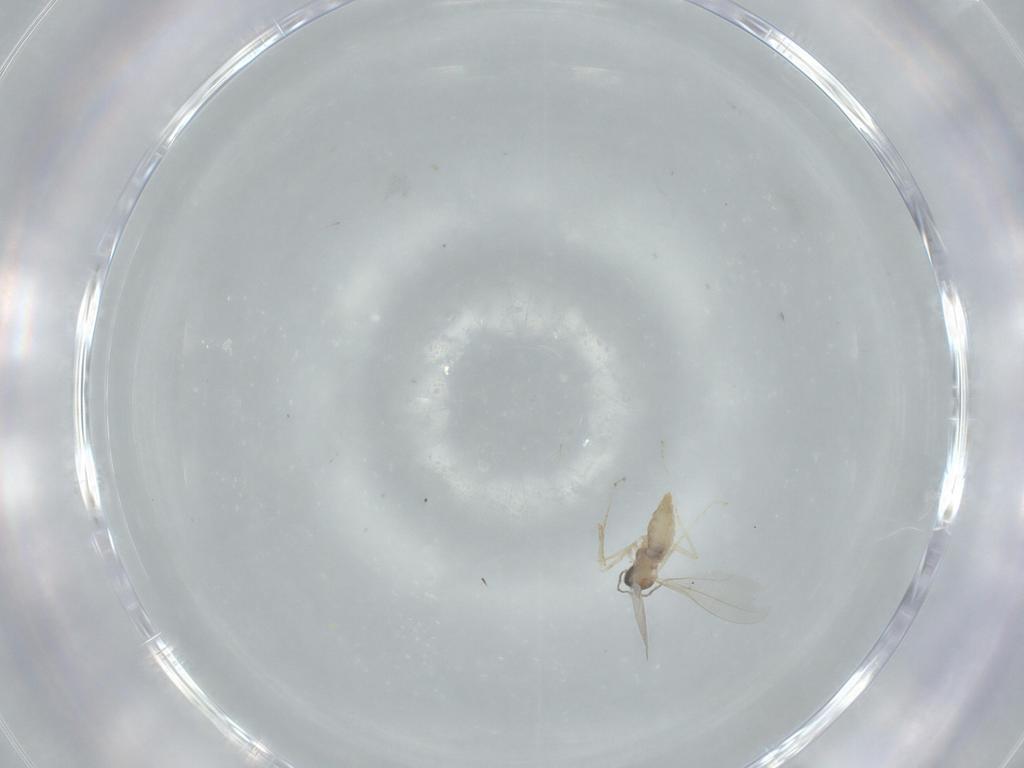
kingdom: Animalia
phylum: Arthropoda
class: Insecta
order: Diptera
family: Cecidomyiidae
